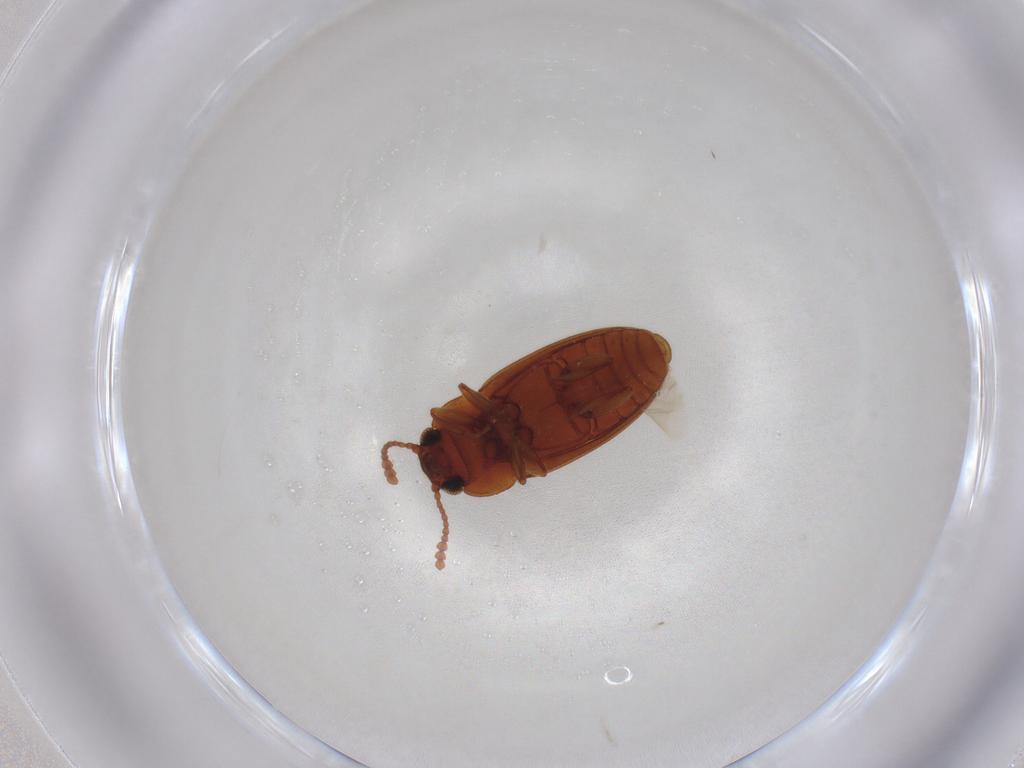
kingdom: Animalia
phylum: Arthropoda
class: Insecta
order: Coleoptera
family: Erotylidae
